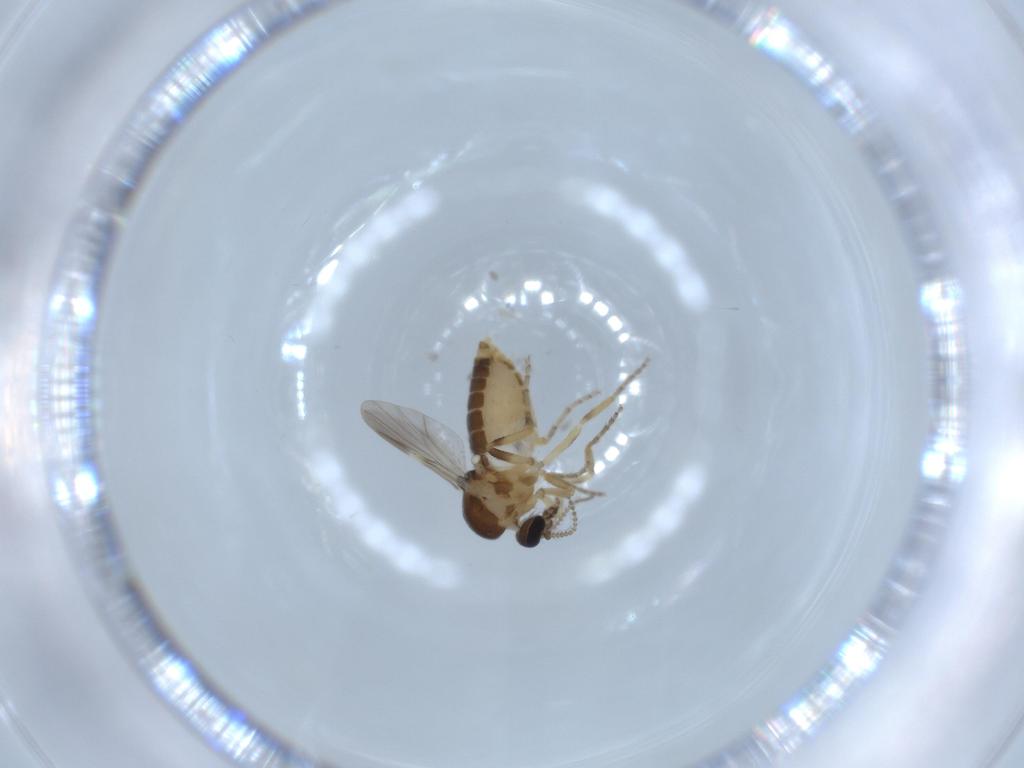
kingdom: Animalia
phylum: Arthropoda
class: Insecta
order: Diptera
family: Ceratopogonidae
